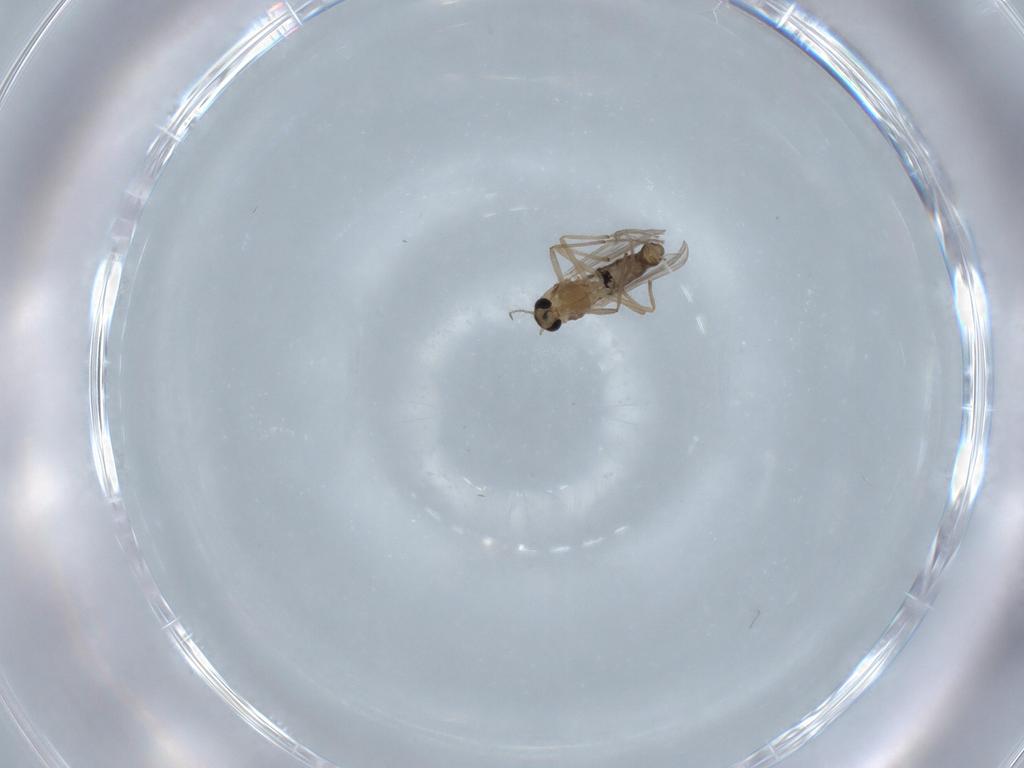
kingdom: Animalia
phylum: Arthropoda
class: Insecta
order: Diptera
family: Chironomidae
